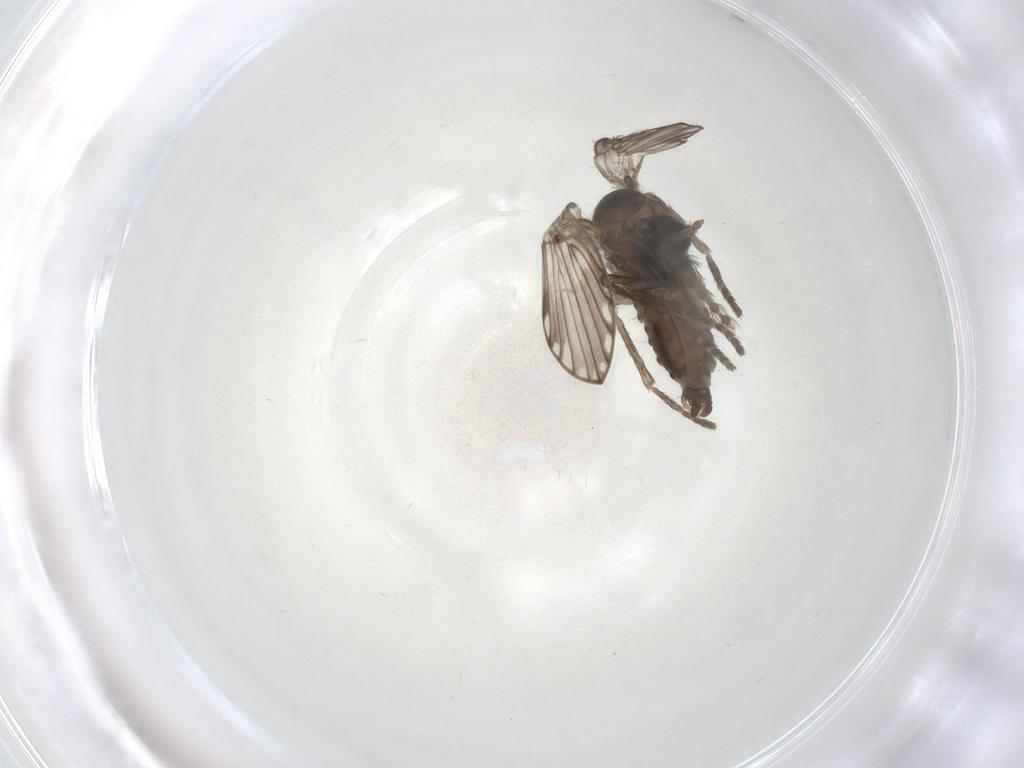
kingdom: Animalia
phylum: Arthropoda
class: Insecta
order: Diptera
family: Psychodidae
